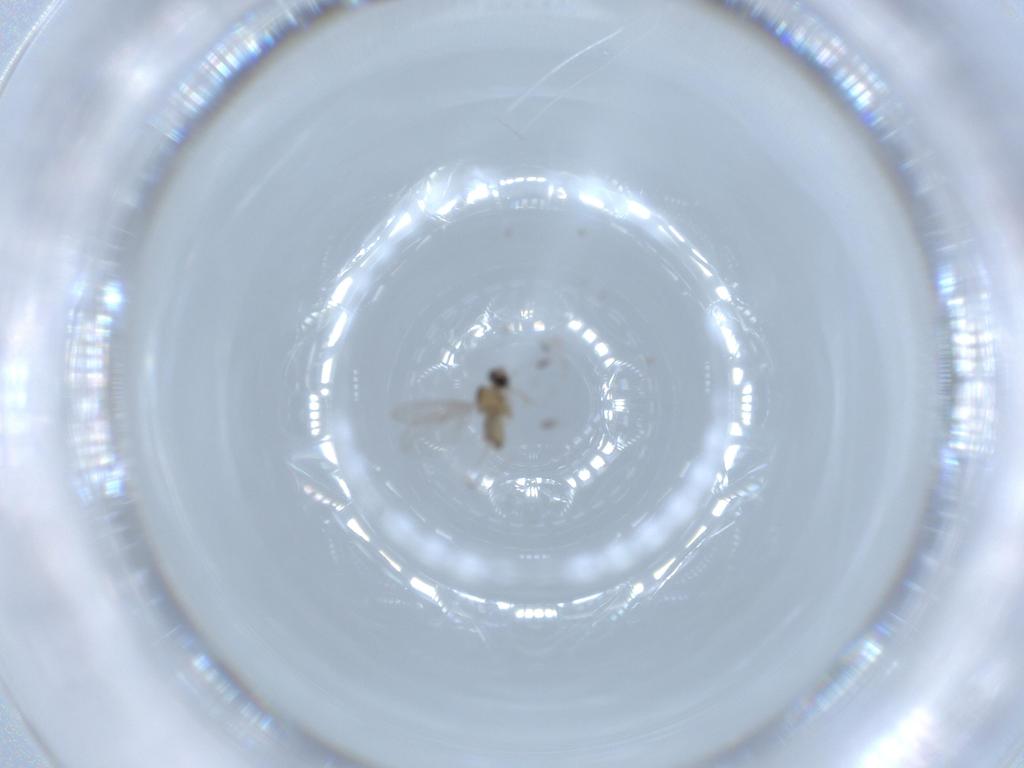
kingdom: Animalia
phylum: Arthropoda
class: Insecta
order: Diptera
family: Cecidomyiidae
